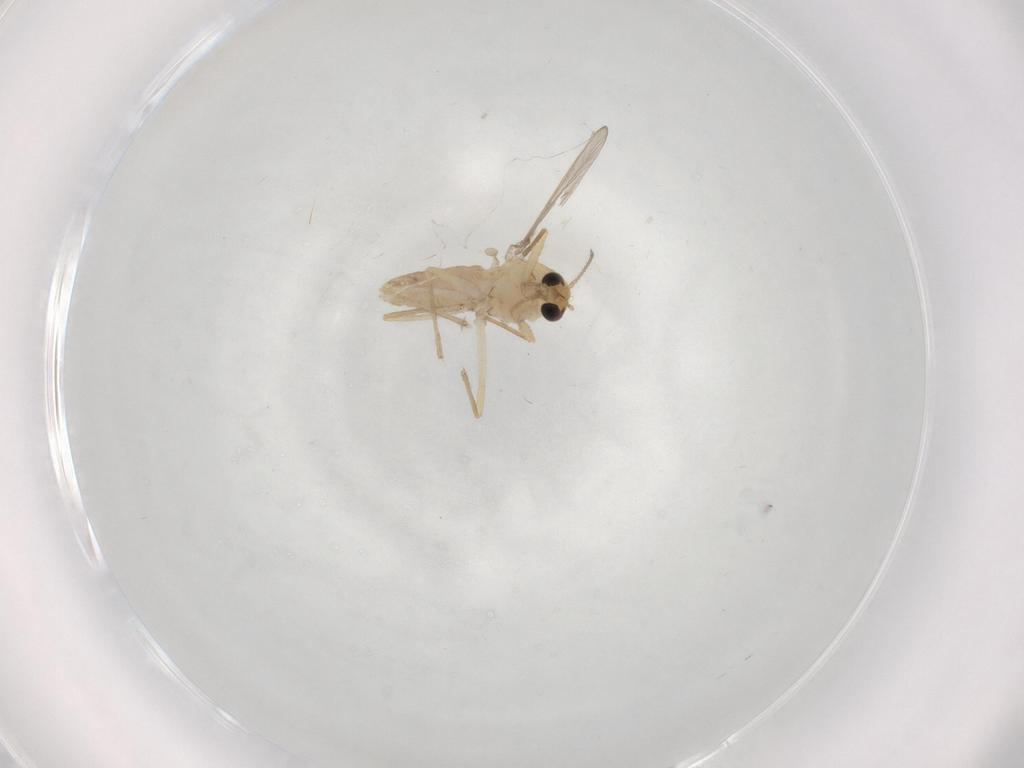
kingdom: Animalia
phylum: Arthropoda
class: Insecta
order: Diptera
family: Chironomidae
